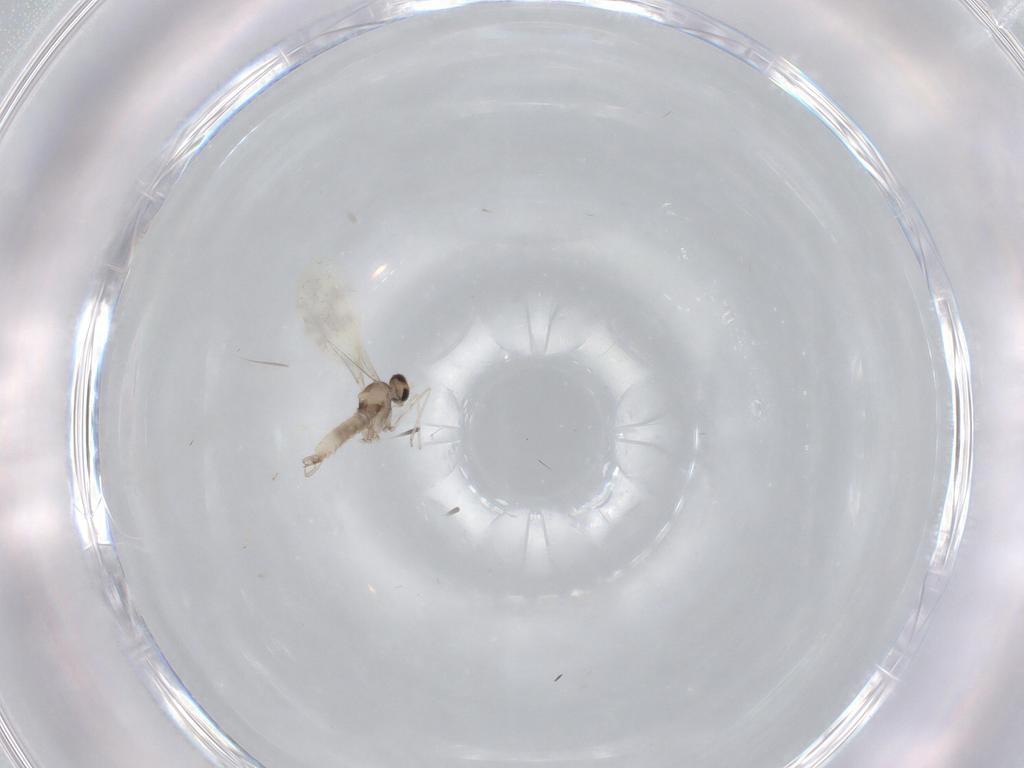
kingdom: Animalia
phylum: Arthropoda
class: Insecta
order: Diptera
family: Cecidomyiidae
